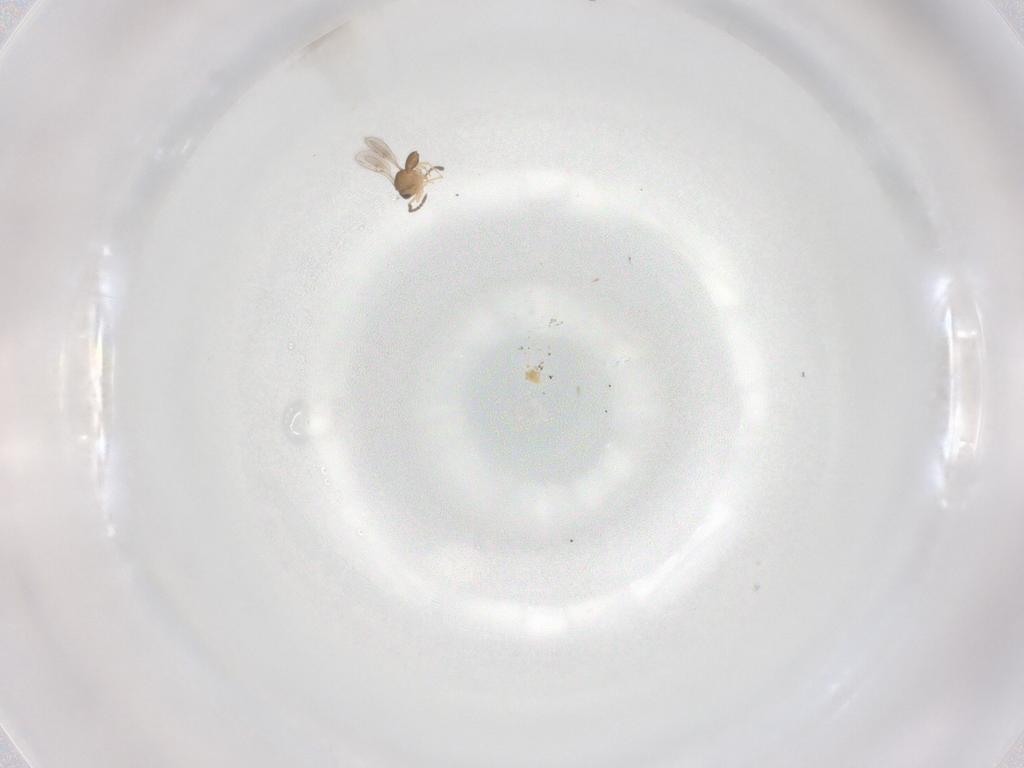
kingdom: Animalia
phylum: Arthropoda
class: Insecta
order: Hymenoptera
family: Scelionidae
